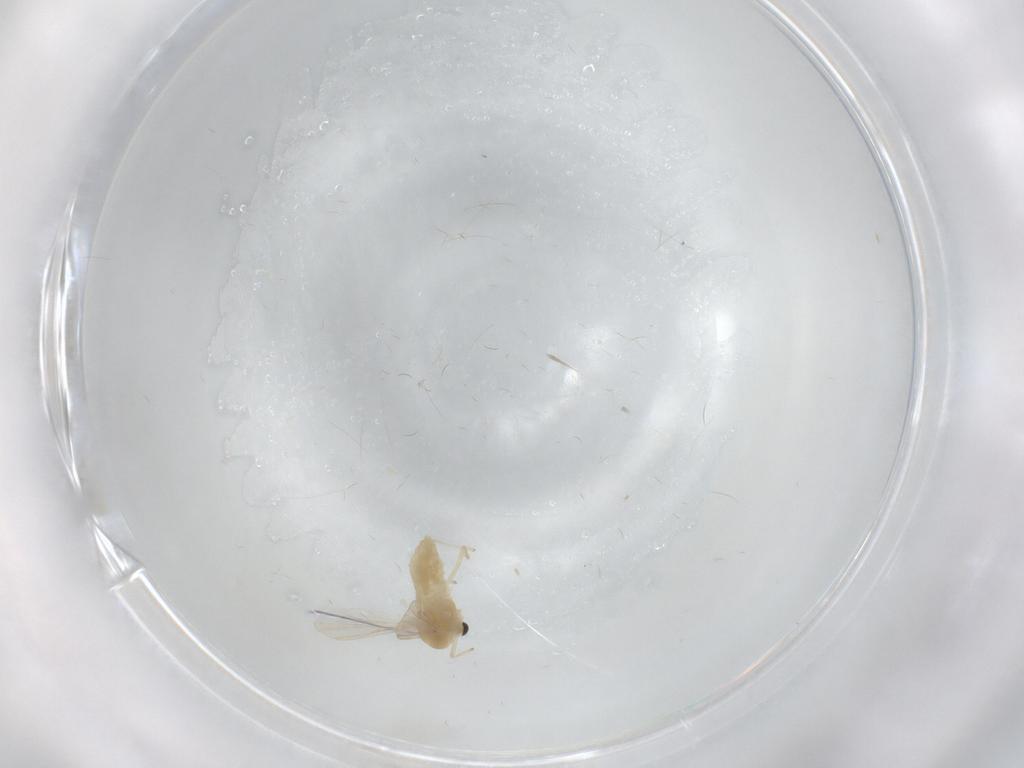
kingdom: Animalia
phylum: Arthropoda
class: Insecta
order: Diptera
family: Chironomidae
